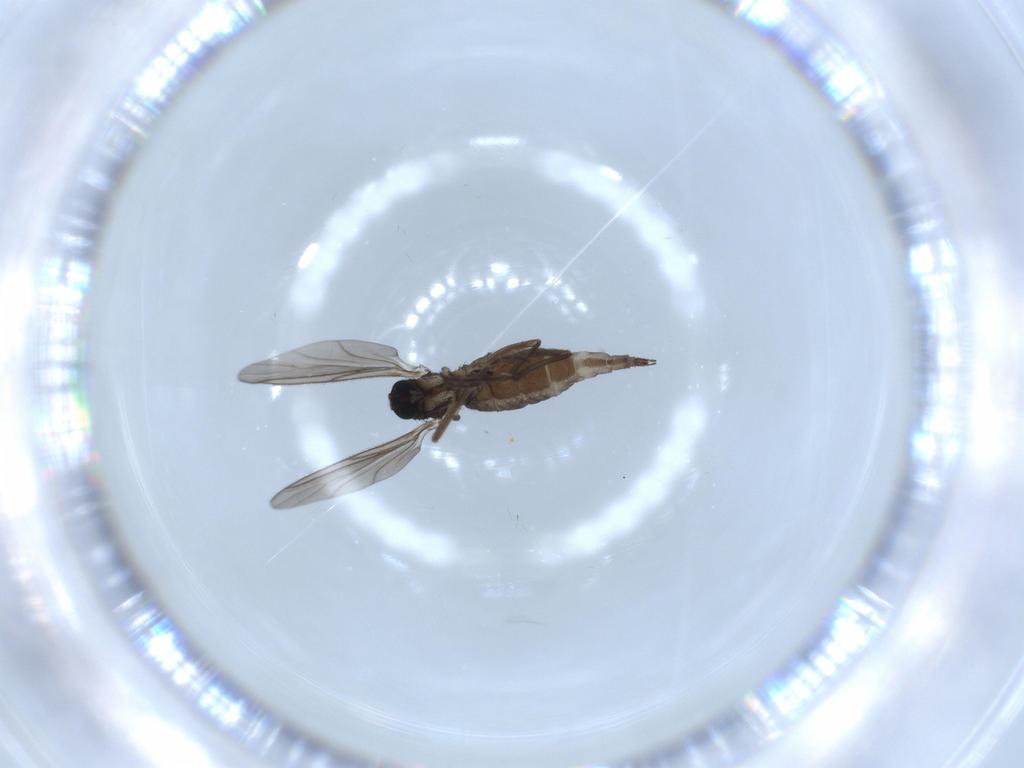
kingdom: Animalia
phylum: Arthropoda
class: Insecta
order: Diptera
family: Sciaridae
